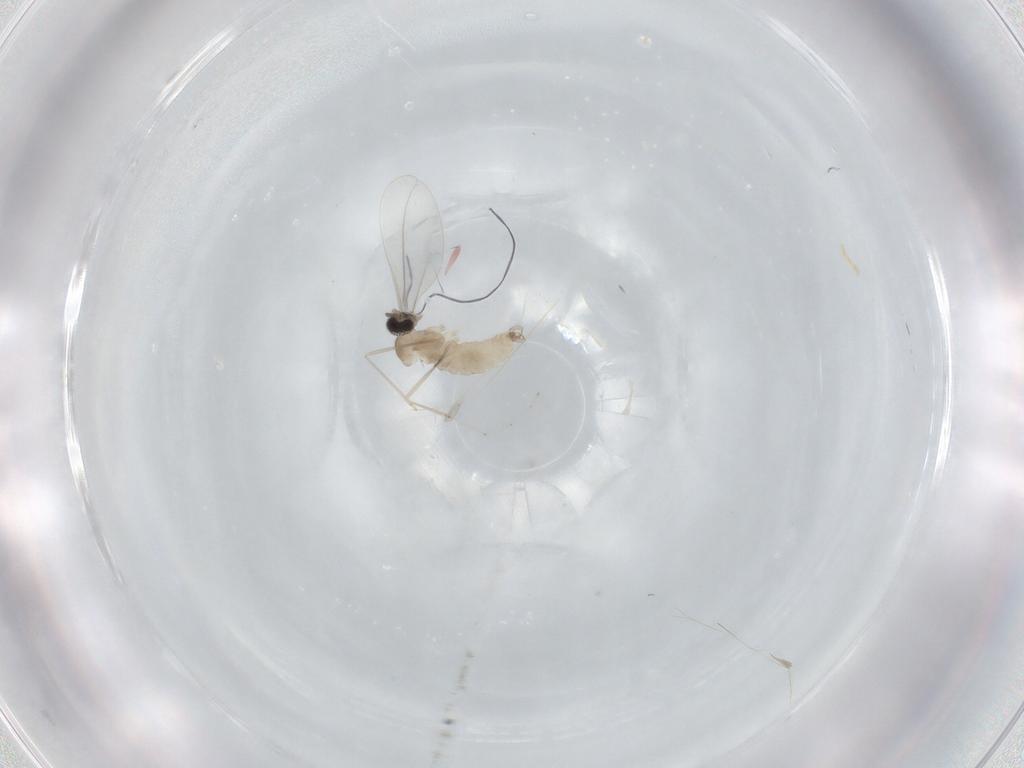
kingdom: Animalia
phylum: Arthropoda
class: Insecta
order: Diptera
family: Cecidomyiidae
